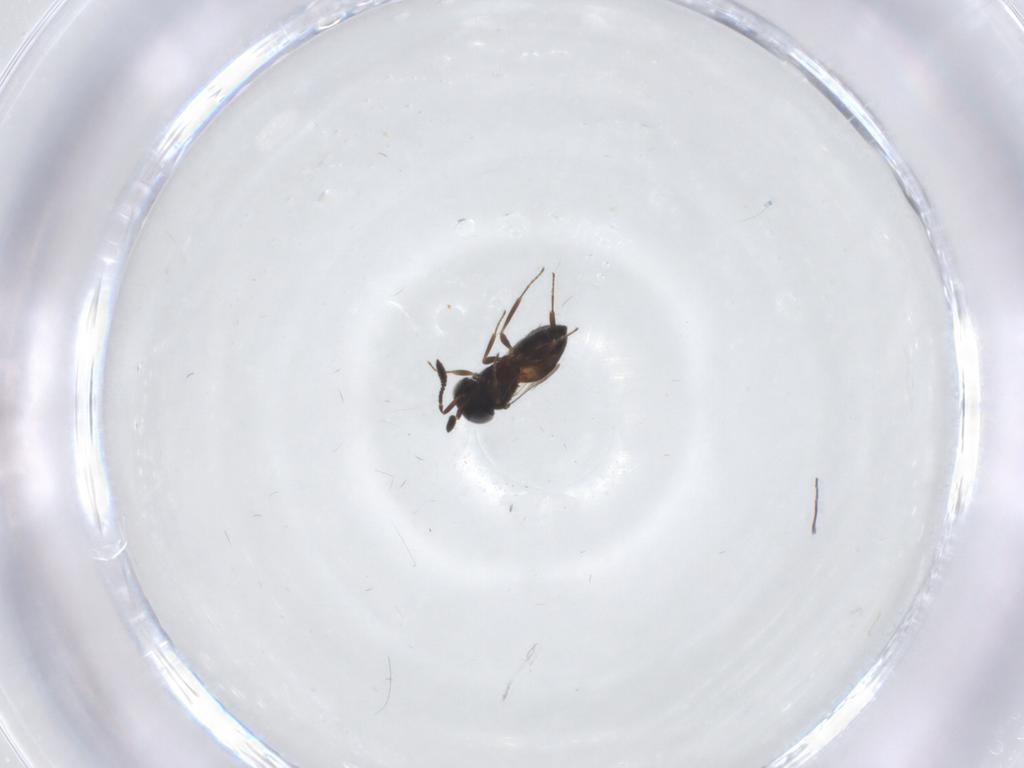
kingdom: Animalia
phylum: Arthropoda
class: Insecta
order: Hymenoptera
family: Scelionidae
